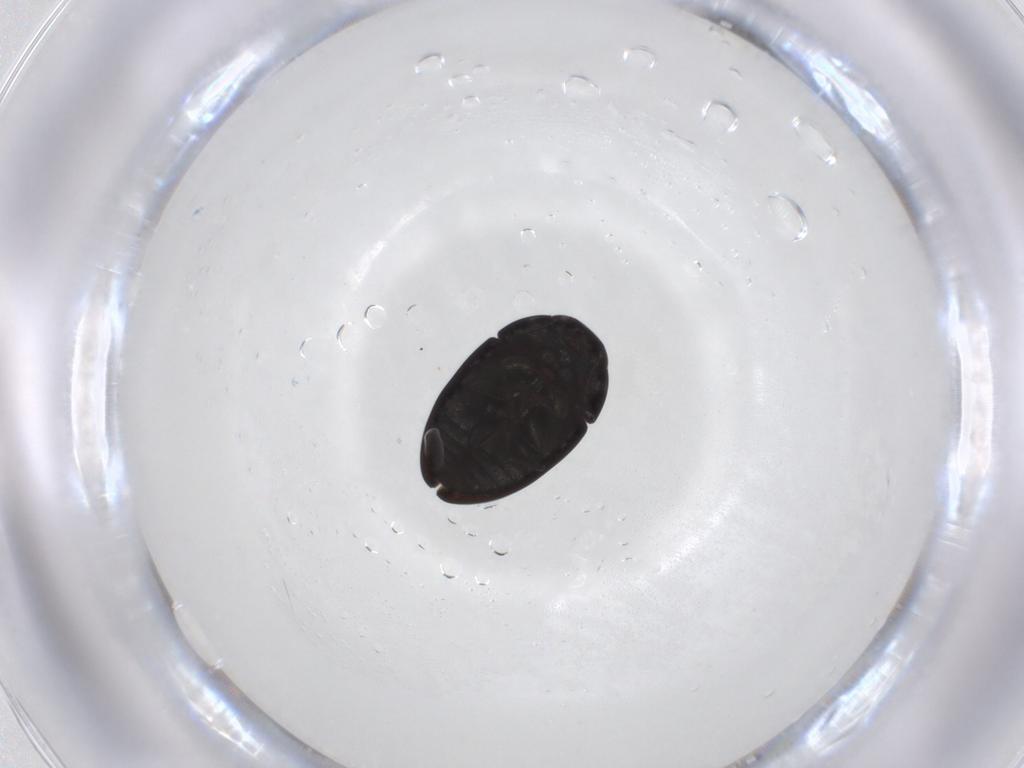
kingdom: Animalia
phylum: Arthropoda
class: Insecta
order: Coleoptera
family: Phalacridae
